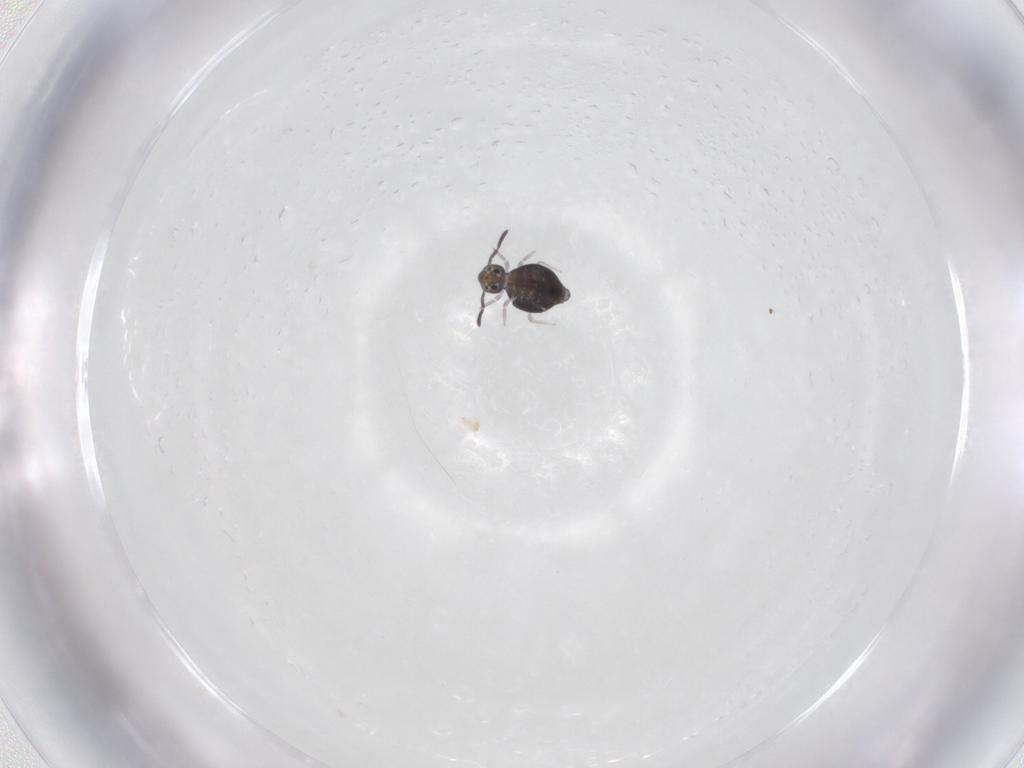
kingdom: Animalia
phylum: Arthropoda
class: Collembola
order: Symphypleona
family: Katiannidae
